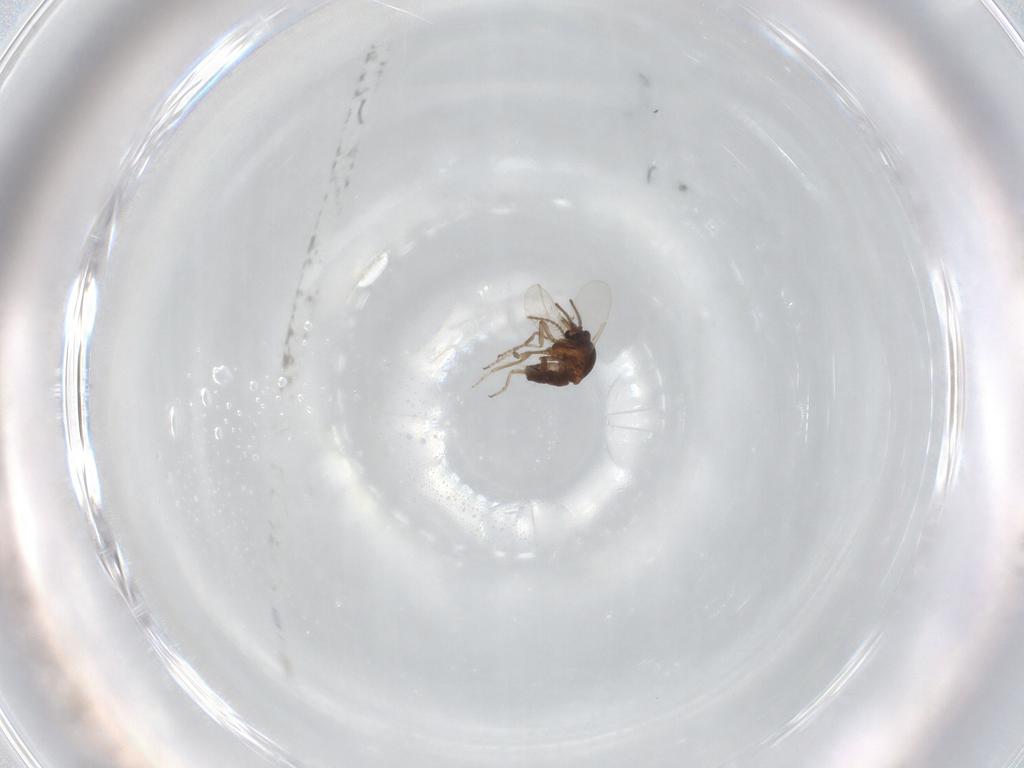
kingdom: Animalia
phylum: Arthropoda
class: Insecta
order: Diptera
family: Ceratopogonidae
